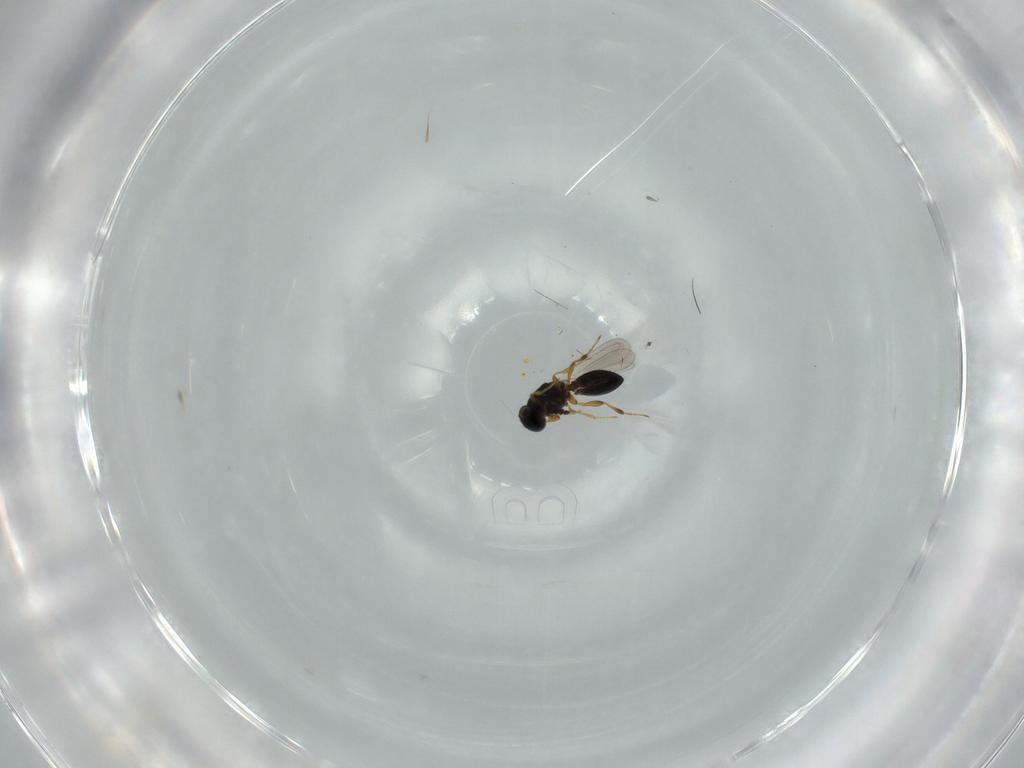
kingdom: Animalia
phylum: Arthropoda
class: Insecta
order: Hymenoptera
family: Platygastridae
